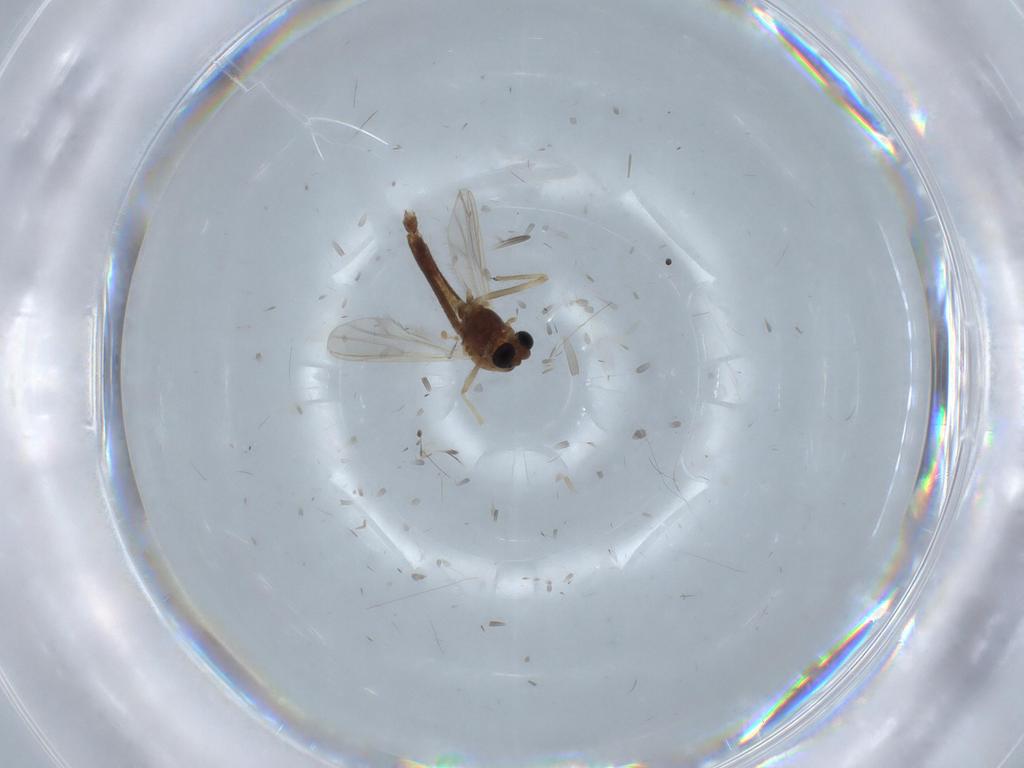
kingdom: Animalia
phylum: Arthropoda
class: Insecta
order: Diptera
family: Chironomidae
